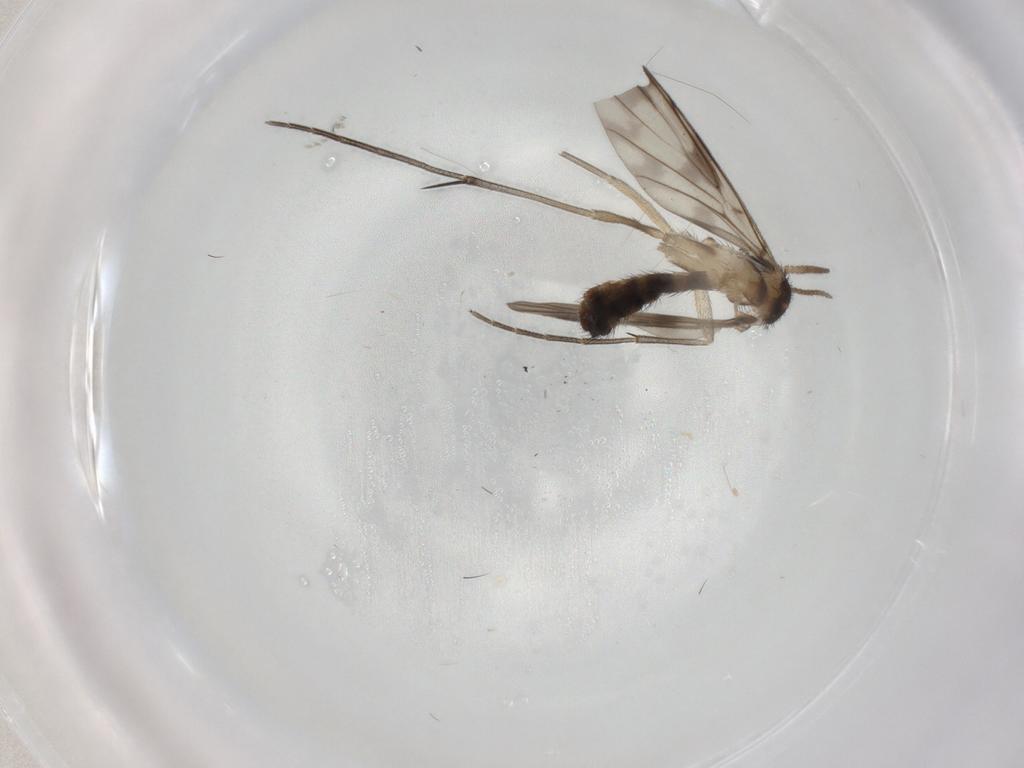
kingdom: Animalia
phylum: Arthropoda
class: Insecta
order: Diptera
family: Keroplatidae
